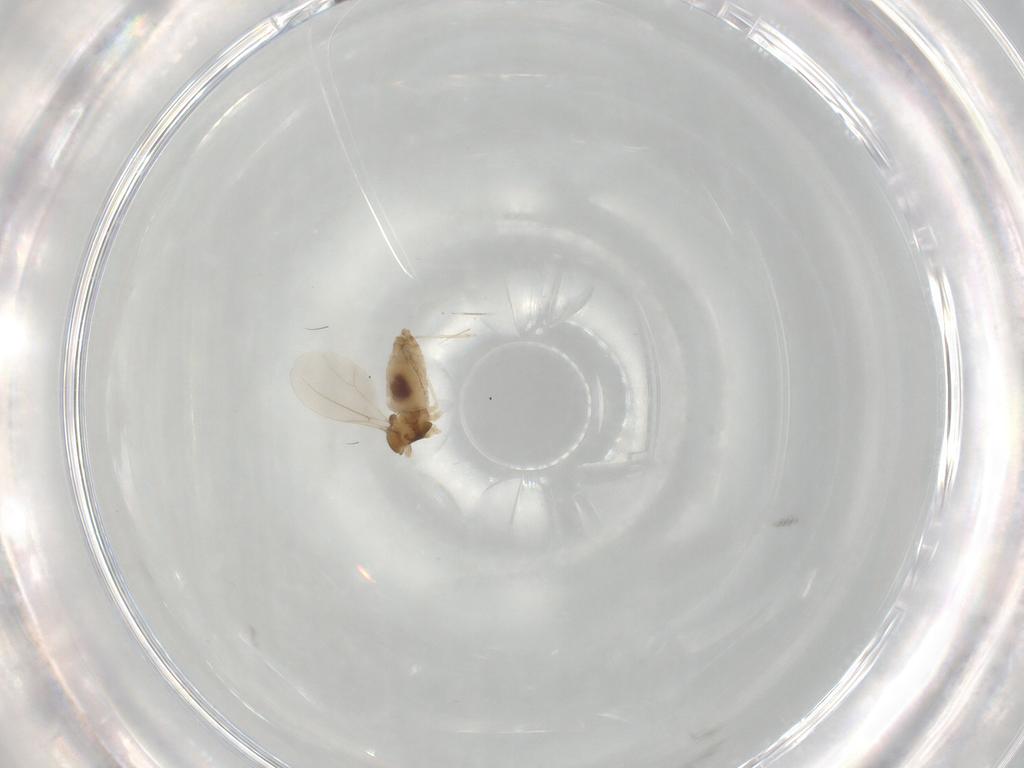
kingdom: Animalia
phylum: Arthropoda
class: Insecta
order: Diptera
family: Cecidomyiidae
